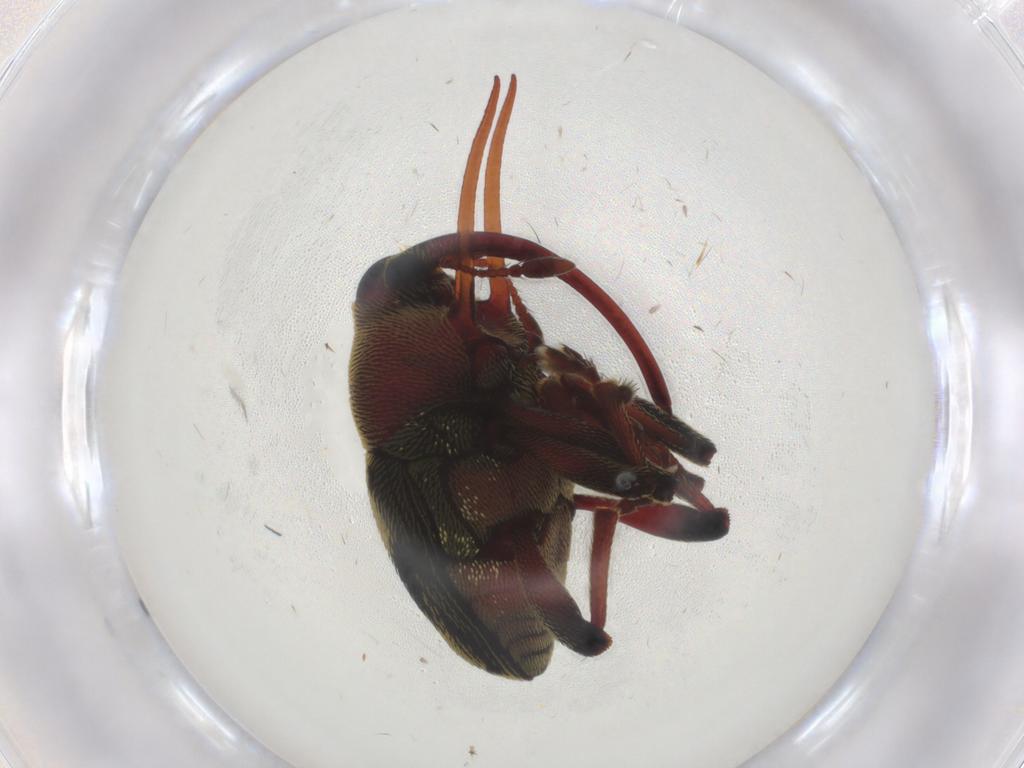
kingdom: Animalia
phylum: Arthropoda
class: Insecta
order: Coleoptera
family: Curculionidae
